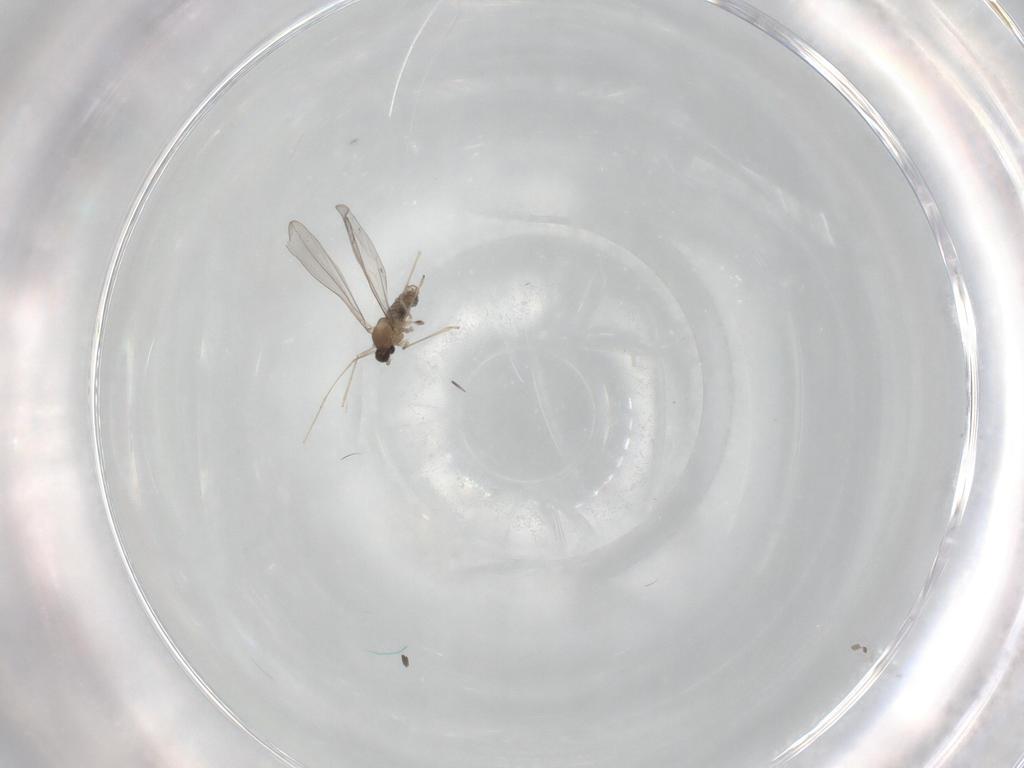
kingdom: Animalia
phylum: Arthropoda
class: Insecta
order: Diptera
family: Cecidomyiidae
